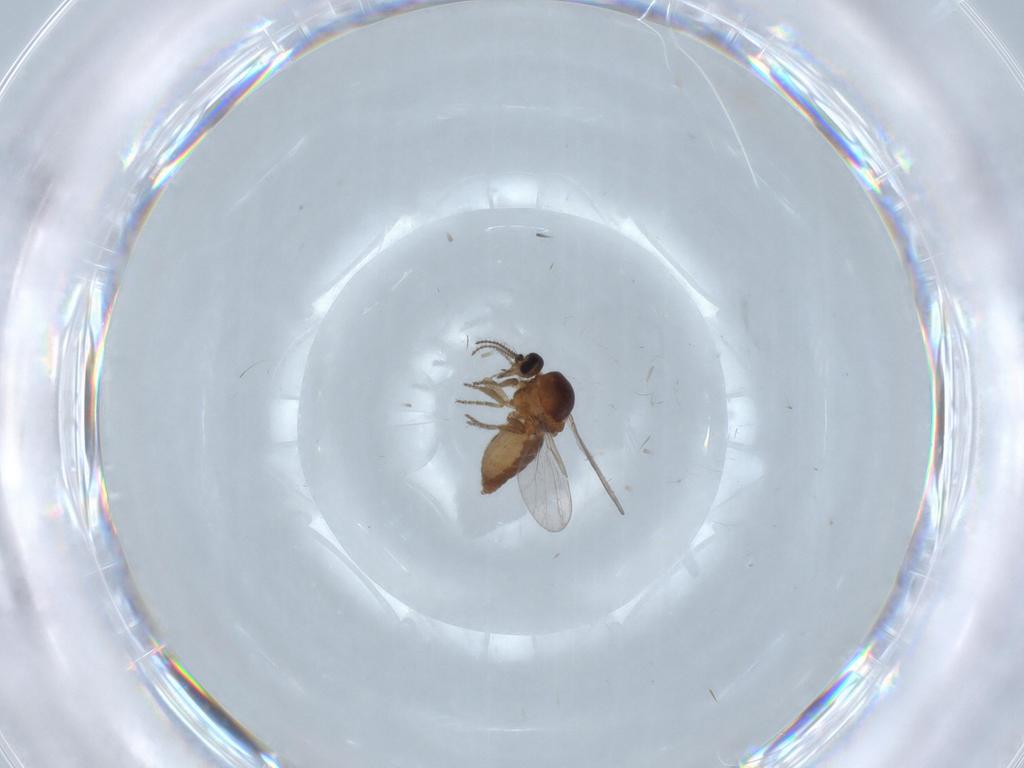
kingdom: Animalia
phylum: Arthropoda
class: Insecta
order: Diptera
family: Ceratopogonidae
